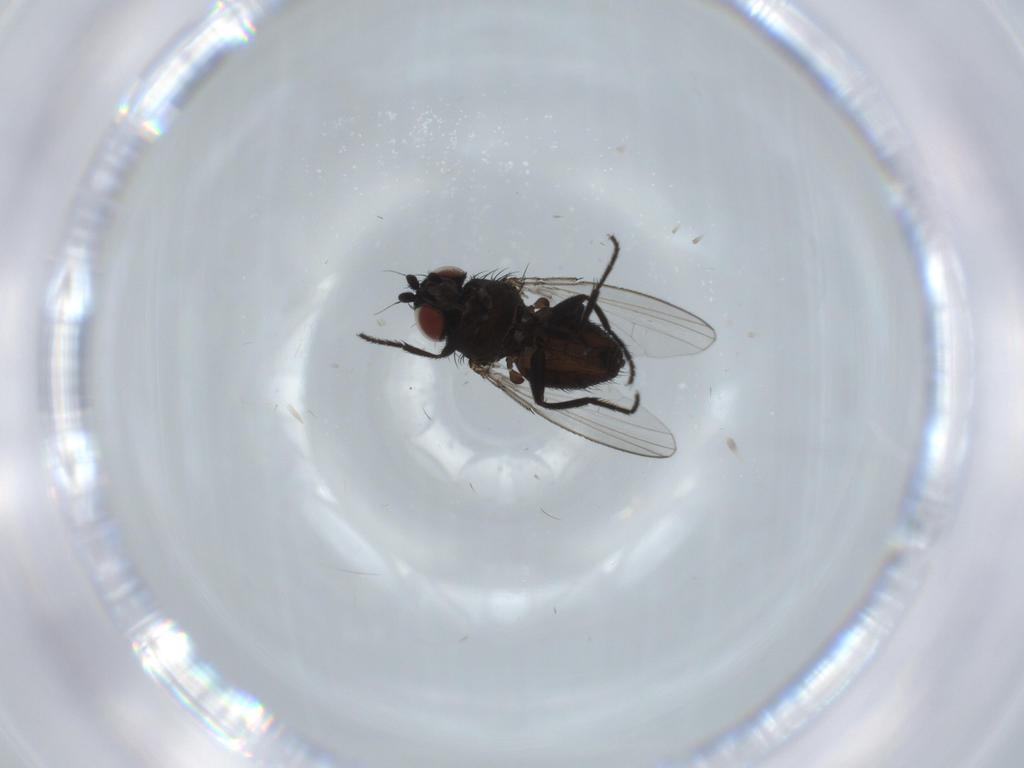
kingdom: Animalia
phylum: Arthropoda
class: Insecta
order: Diptera
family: Milichiidae
